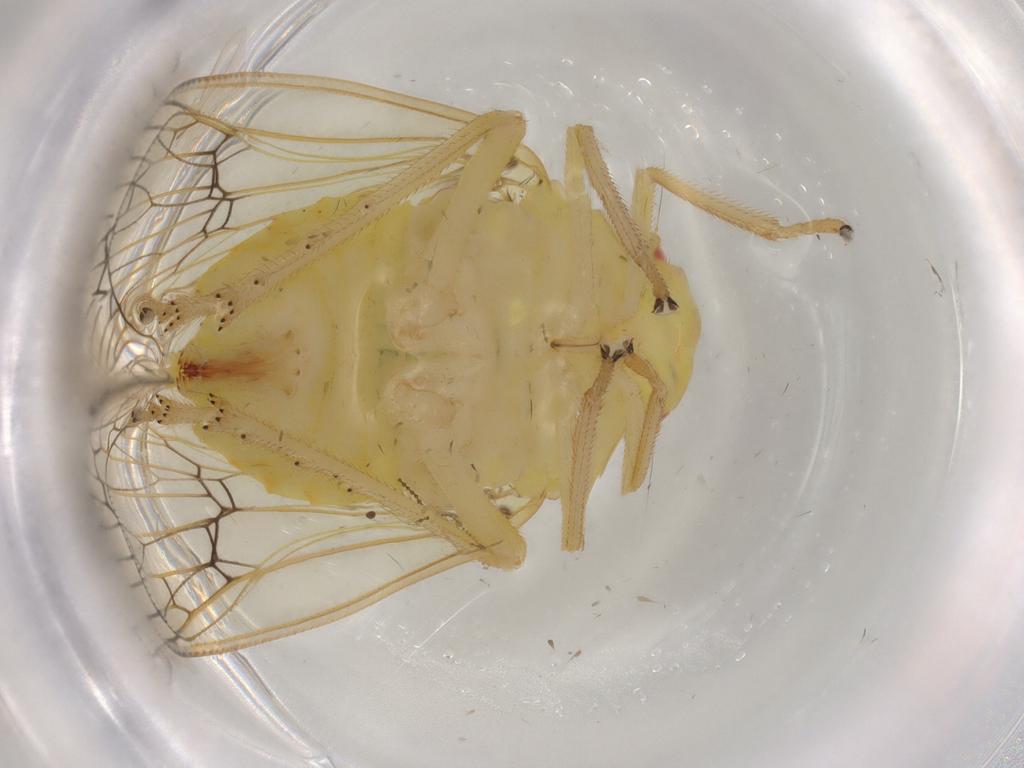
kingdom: Animalia
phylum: Arthropoda
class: Insecta
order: Hemiptera
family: Tropiduchidae
